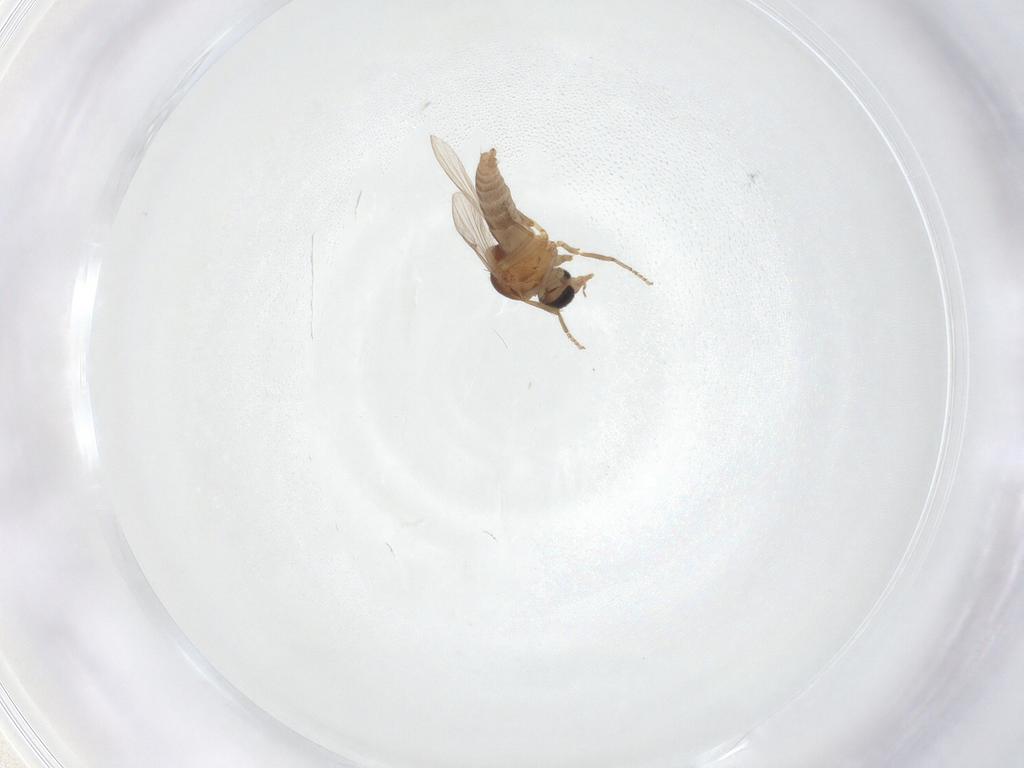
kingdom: Animalia
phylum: Arthropoda
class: Insecta
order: Diptera
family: Ceratopogonidae
